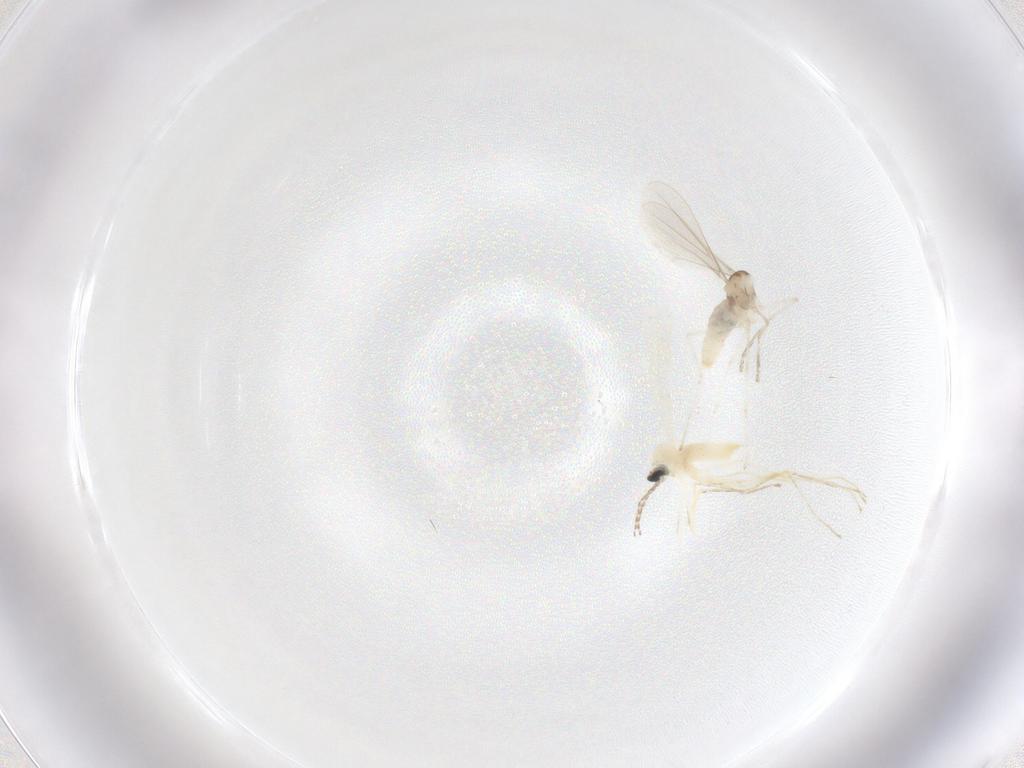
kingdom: Animalia
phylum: Arthropoda
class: Insecta
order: Diptera
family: Cecidomyiidae
